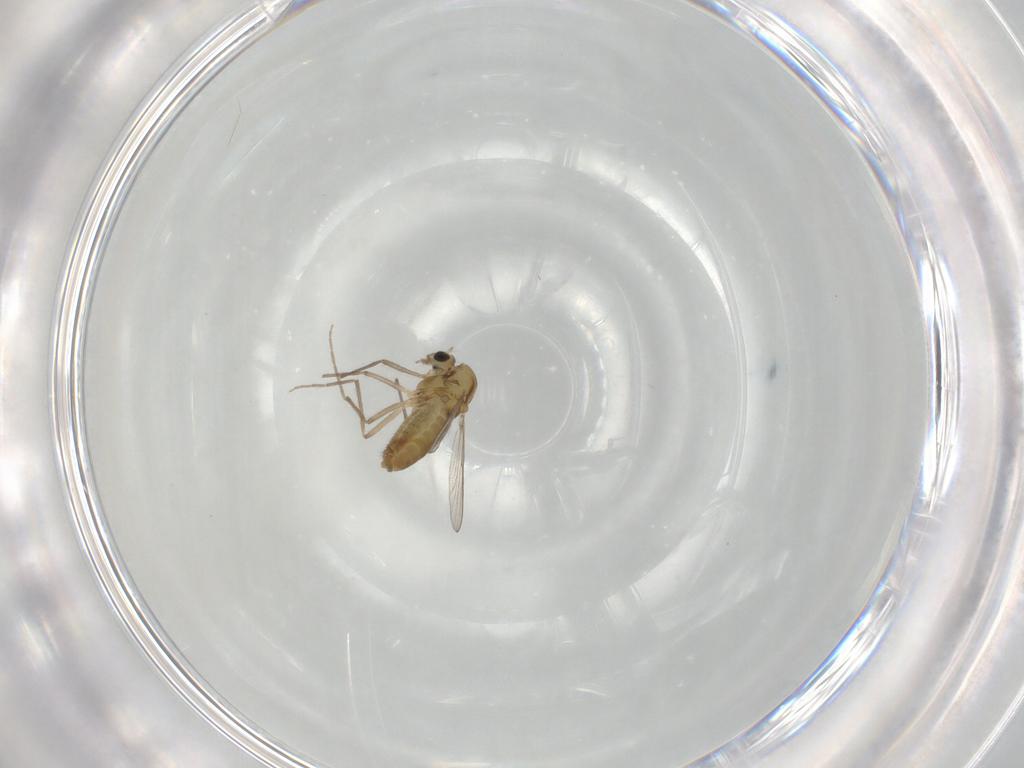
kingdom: Animalia
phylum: Arthropoda
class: Insecta
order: Diptera
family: Chironomidae
